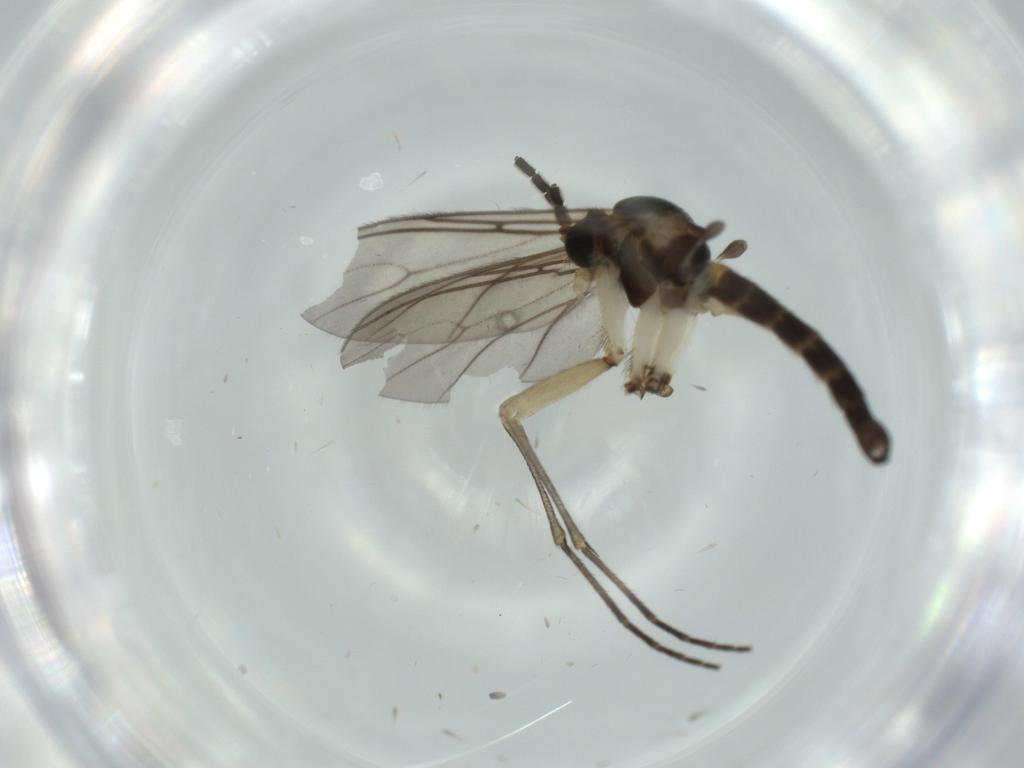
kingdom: Animalia
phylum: Arthropoda
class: Insecta
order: Diptera
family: Sciaridae
